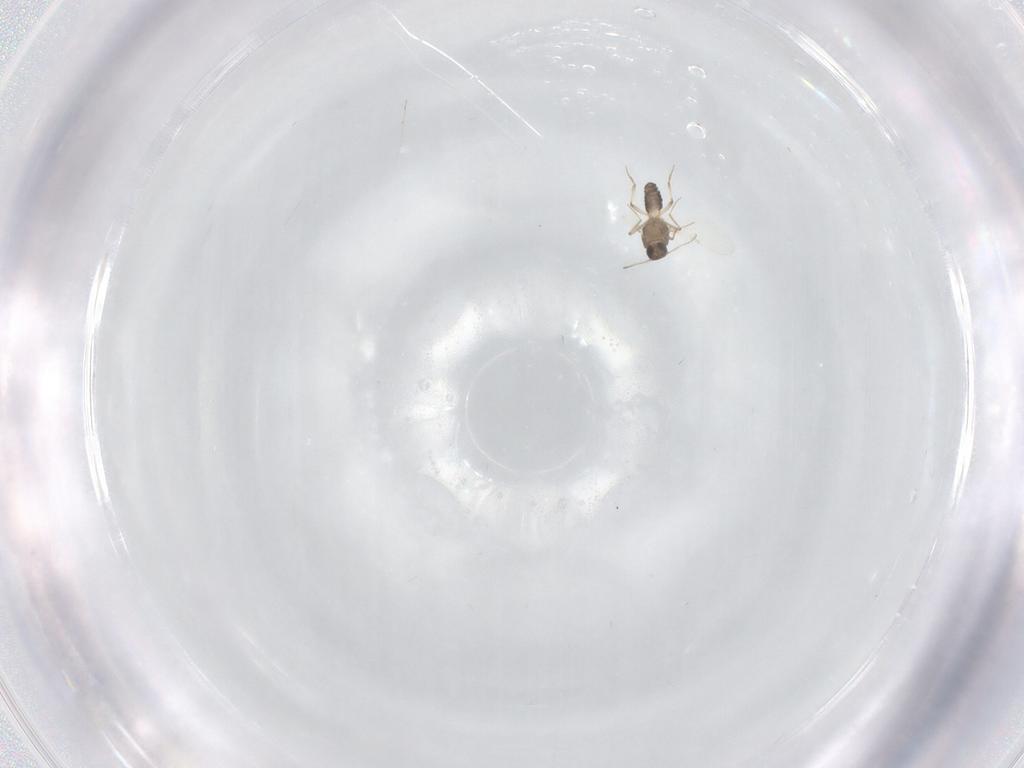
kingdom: Animalia
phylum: Arthropoda
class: Insecta
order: Diptera
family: Ceratopogonidae
